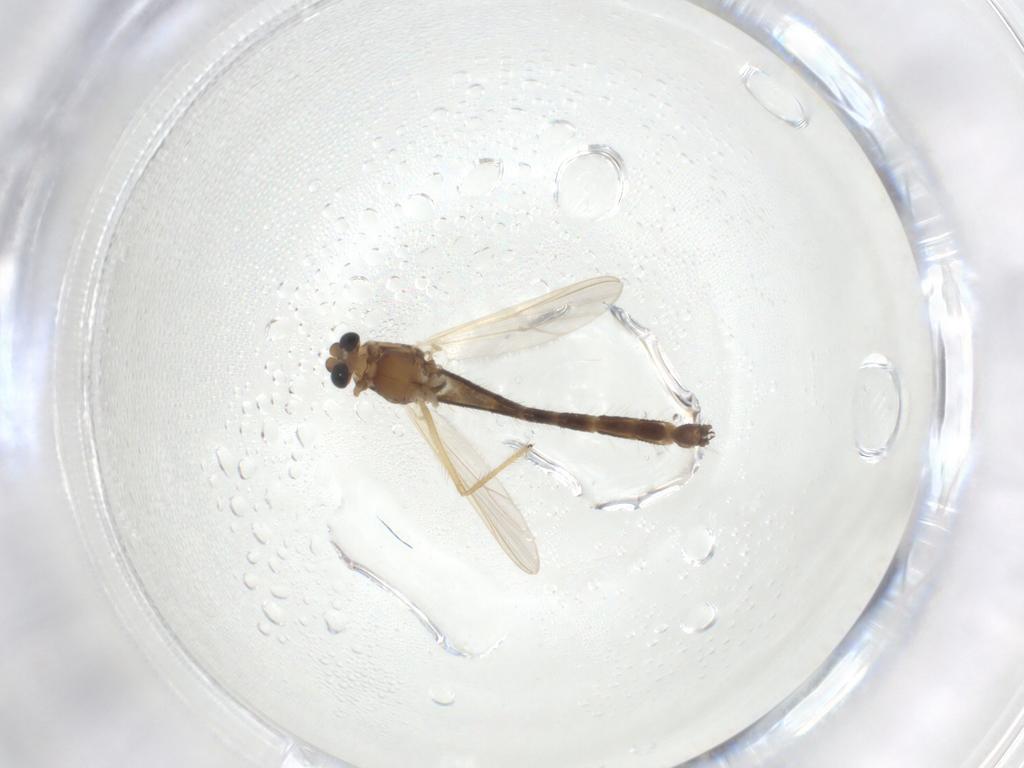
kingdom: Animalia
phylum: Arthropoda
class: Insecta
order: Diptera
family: Chironomidae
